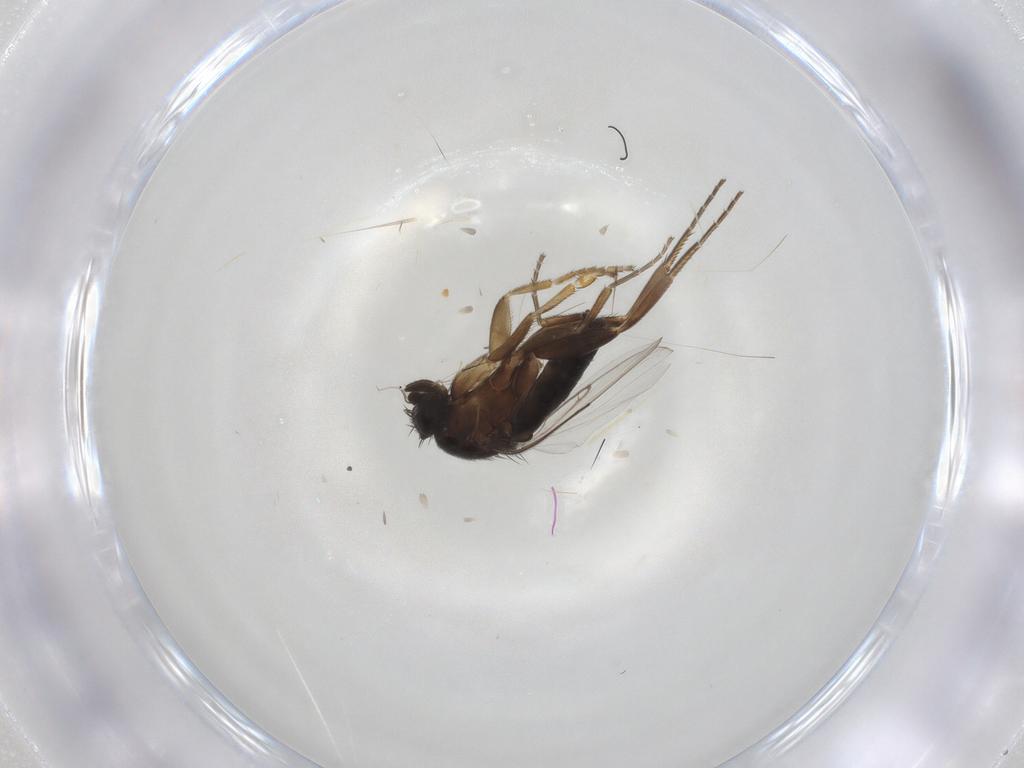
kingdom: Animalia
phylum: Arthropoda
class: Insecta
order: Diptera
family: Phoridae
